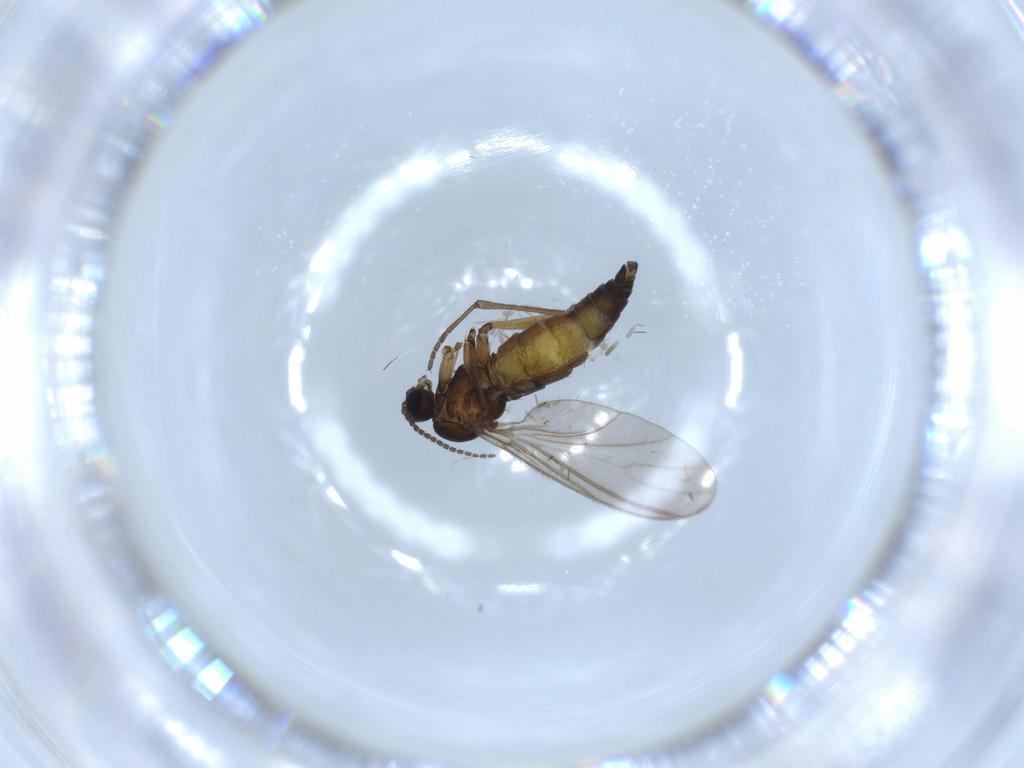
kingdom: Animalia
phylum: Arthropoda
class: Insecta
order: Diptera
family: Sciaridae
